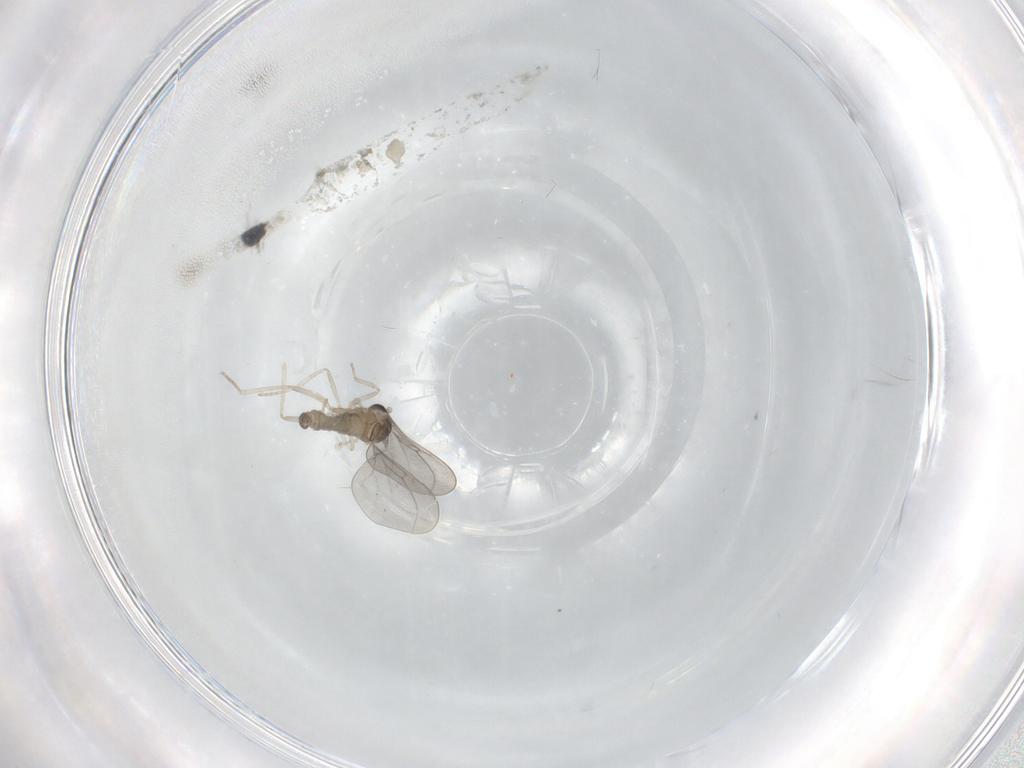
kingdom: Animalia
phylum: Arthropoda
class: Insecta
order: Diptera
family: Cecidomyiidae
